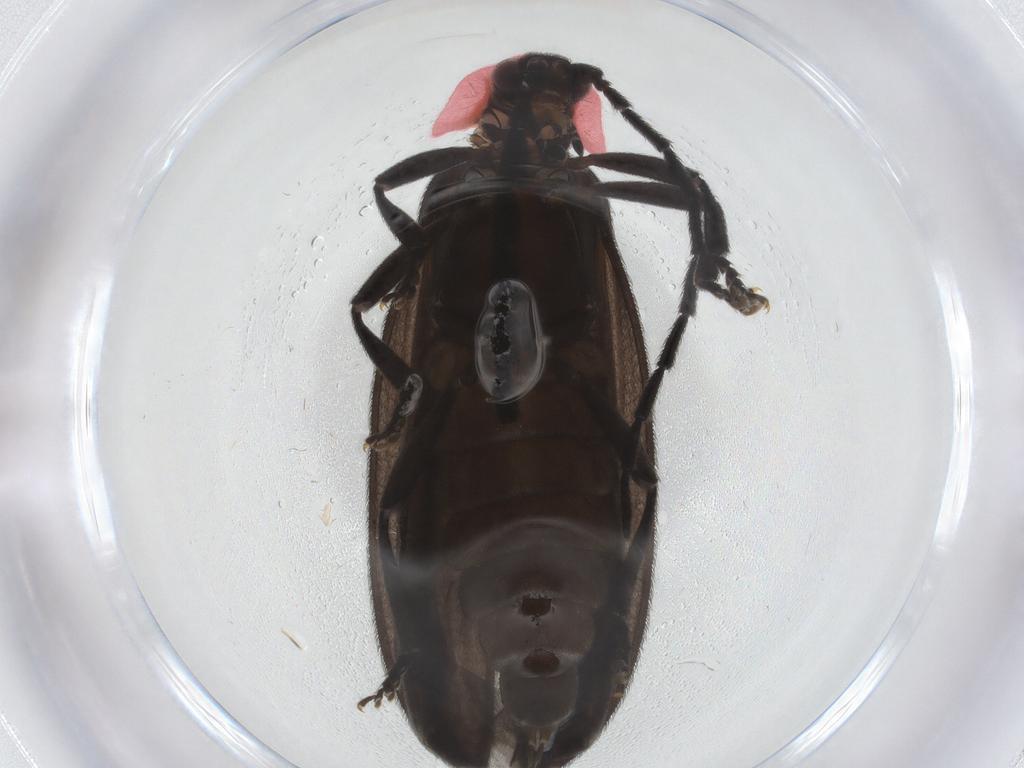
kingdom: Animalia
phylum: Arthropoda
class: Insecta
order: Coleoptera
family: Lycidae
